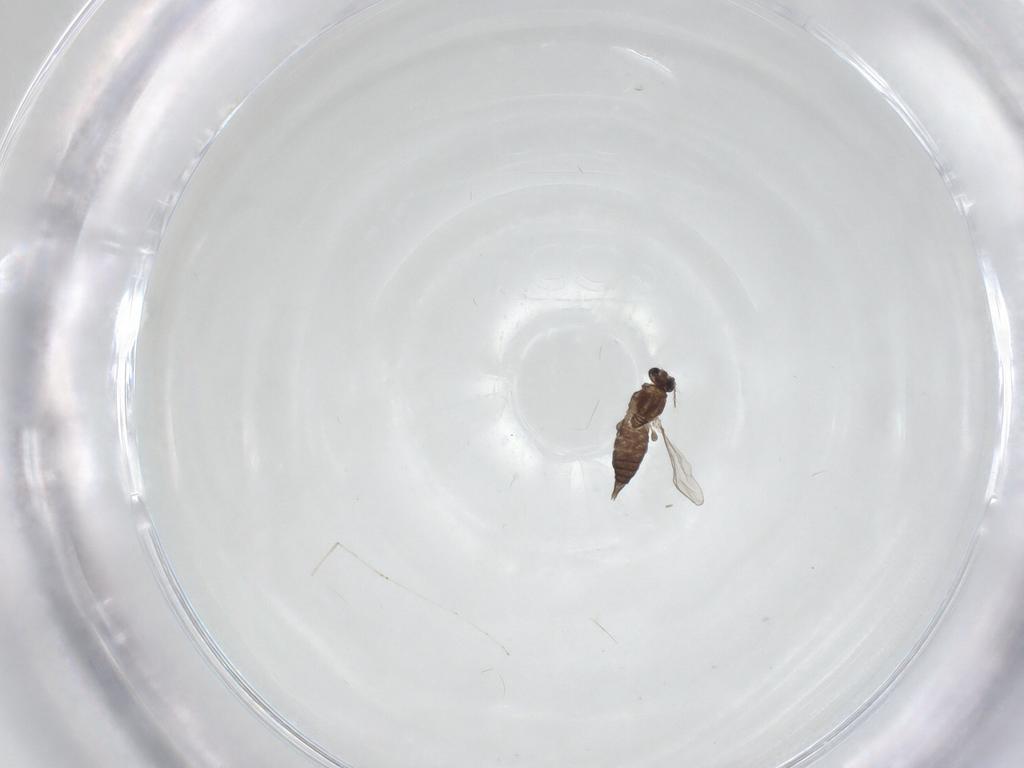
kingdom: Animalia
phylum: Arthropoda
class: Insecta
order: Diptera
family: Chironomidae
